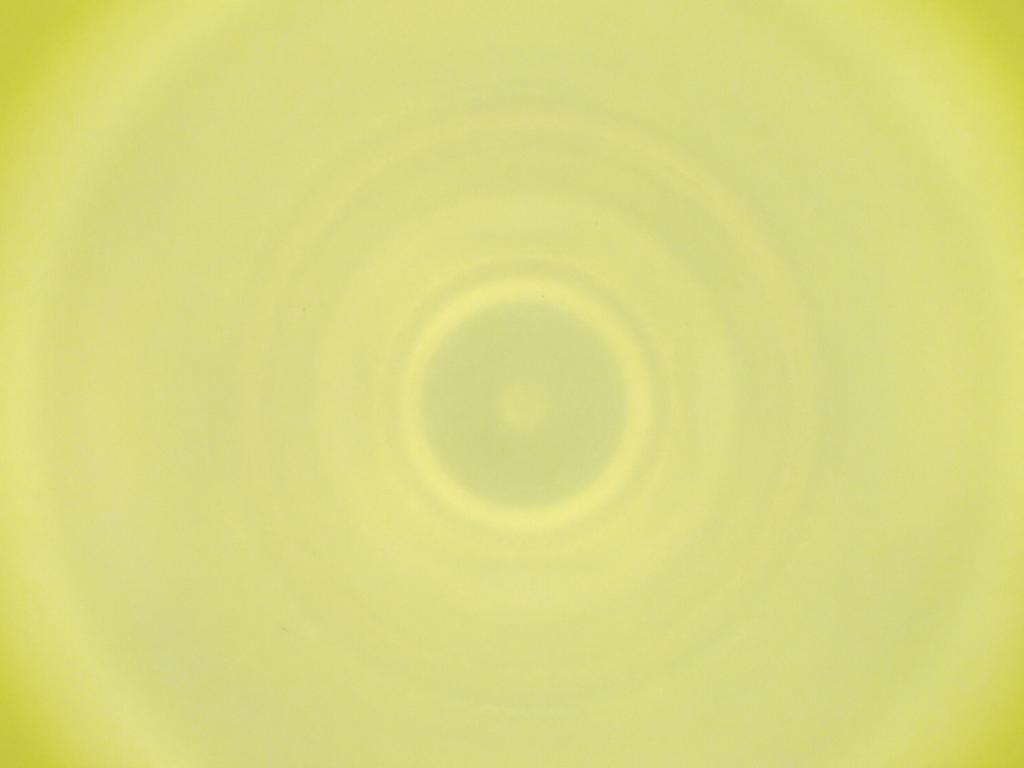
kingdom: Animalia
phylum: Arthropoda
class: Insecta
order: Diptera
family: Cecidomyiidae
